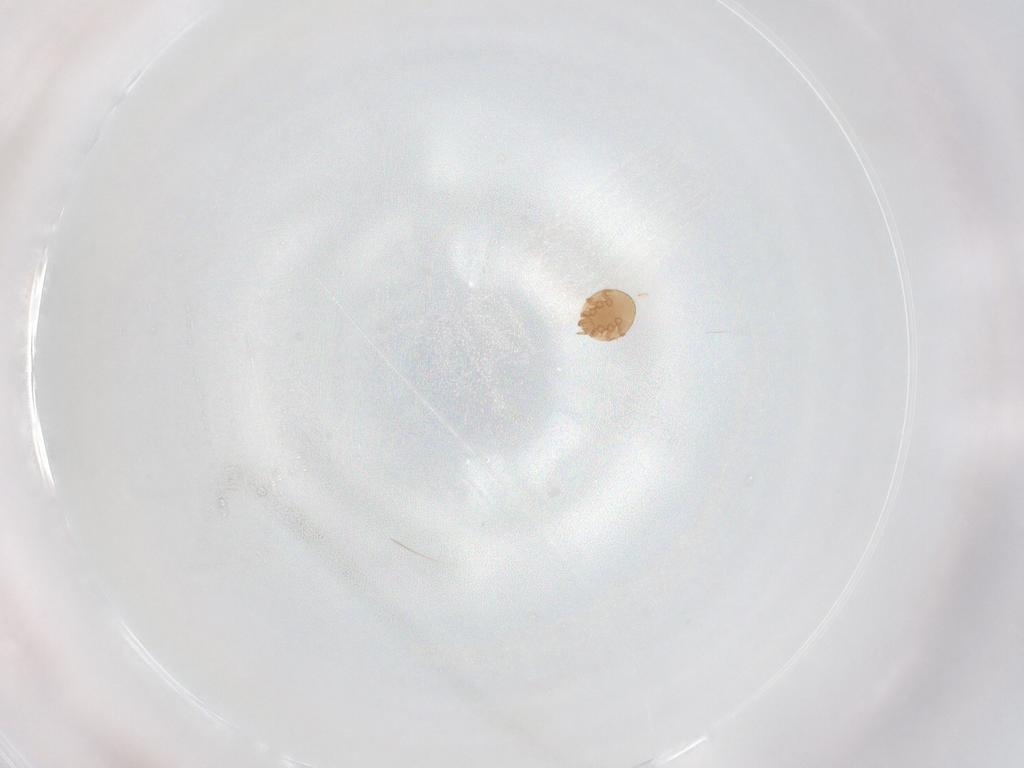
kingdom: Animalia
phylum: Arthropoda
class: Arachnida
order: Mesostigmata
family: Trematuridae
